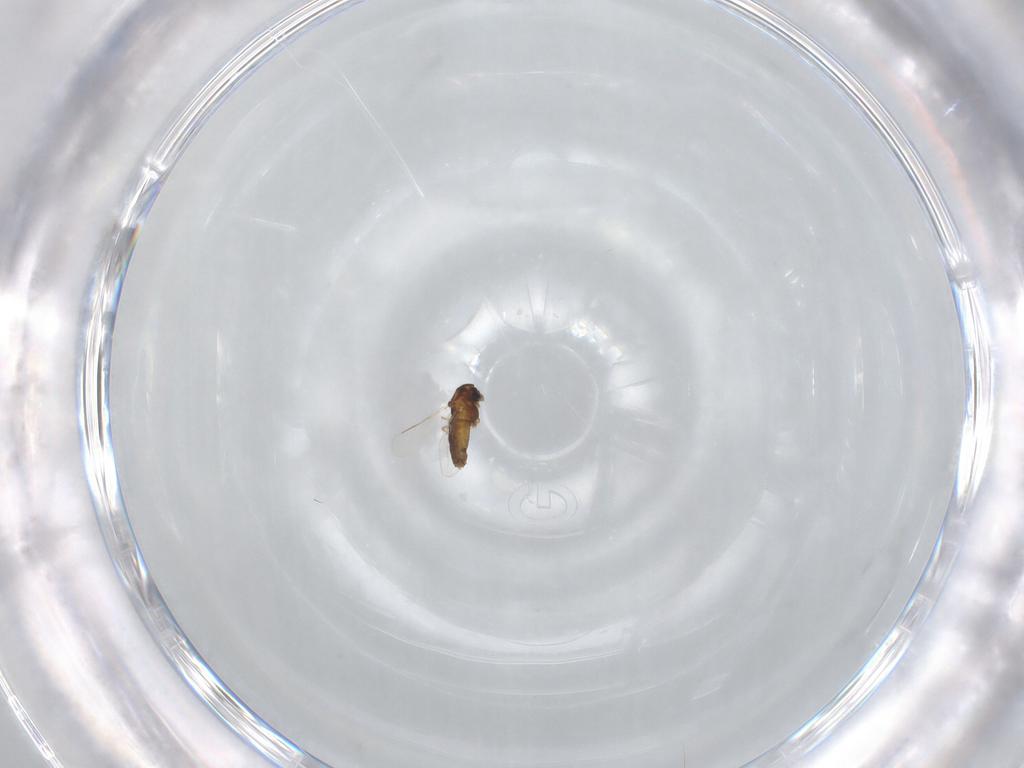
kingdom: Animalia
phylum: Arthropoda
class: Insecta
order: Diptera
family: Chironomidae
